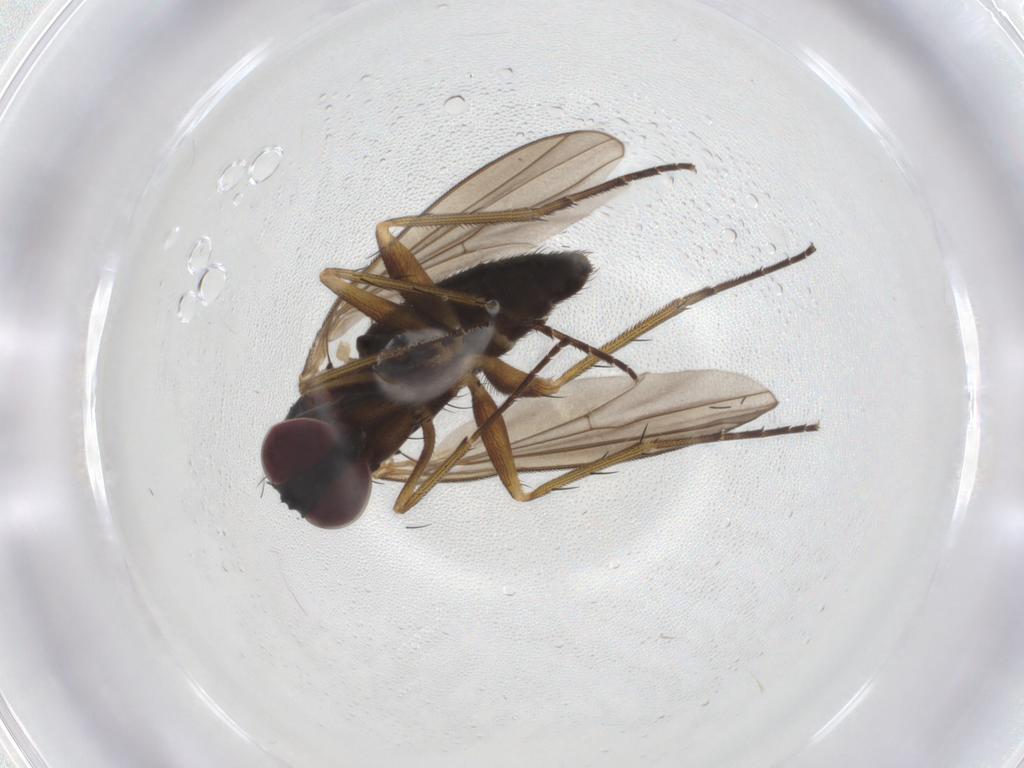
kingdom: Animalia
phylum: Arthropoda
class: Insecta
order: Diptera
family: Dolichopodidae
